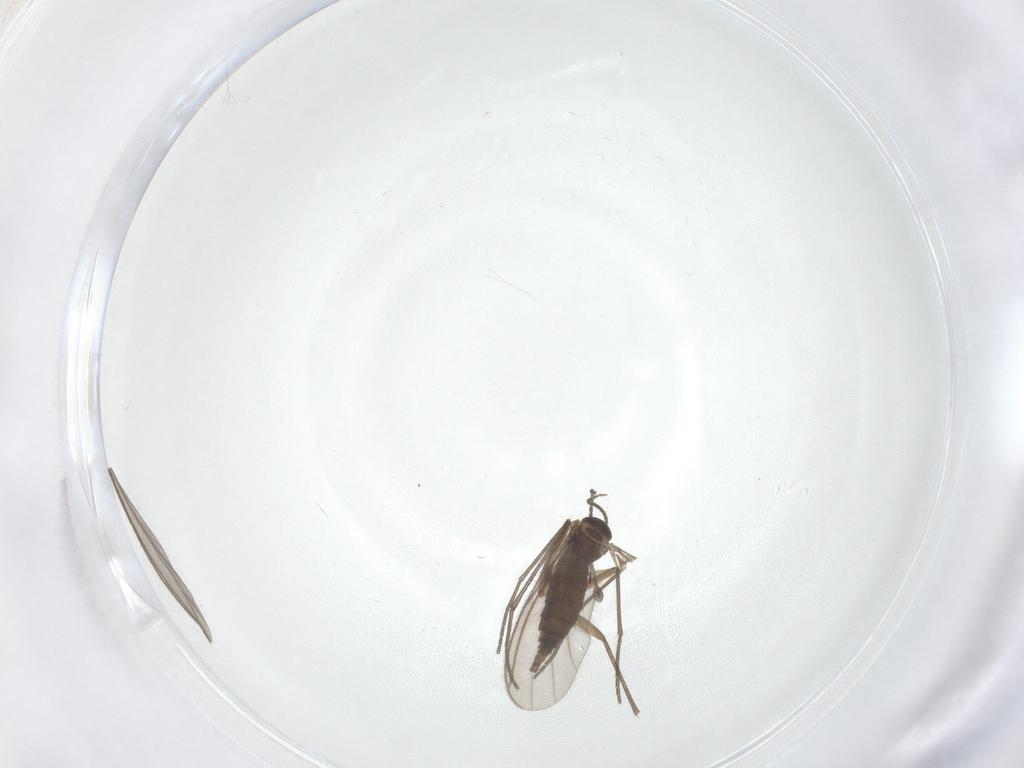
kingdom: Animalia
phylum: Arthropoda
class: Insecta
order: Diptera
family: Sciaridae
